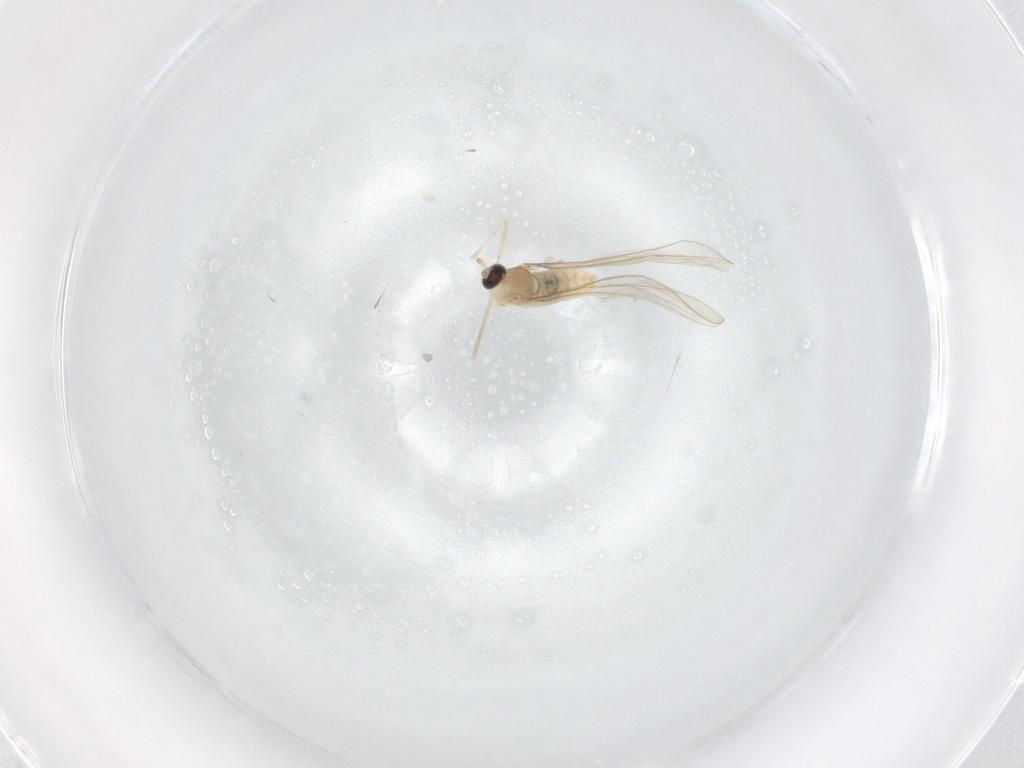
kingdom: Animalia
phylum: Arthropoda
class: Insecta
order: Diptera
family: Cecidomyiidae
